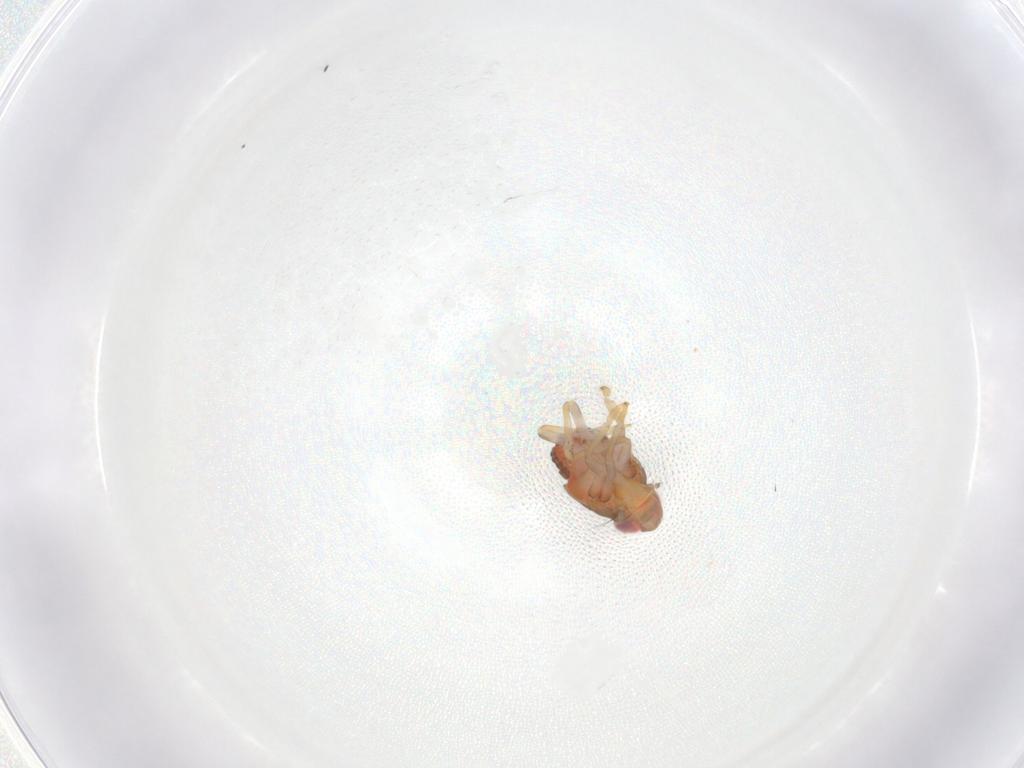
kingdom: Animalia
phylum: Arthropoda
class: Insecta
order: Hemiptera
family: Issidae
